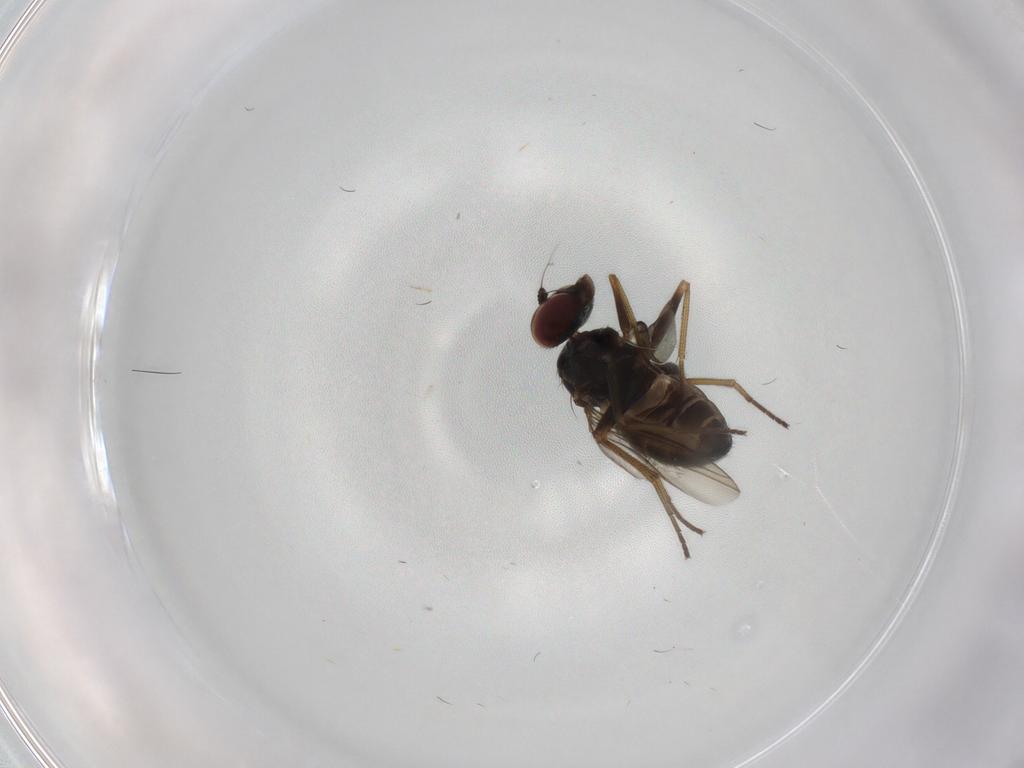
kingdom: Animalia
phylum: Arthropoda
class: Insecta
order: Diptera
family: Dolichopodidae
